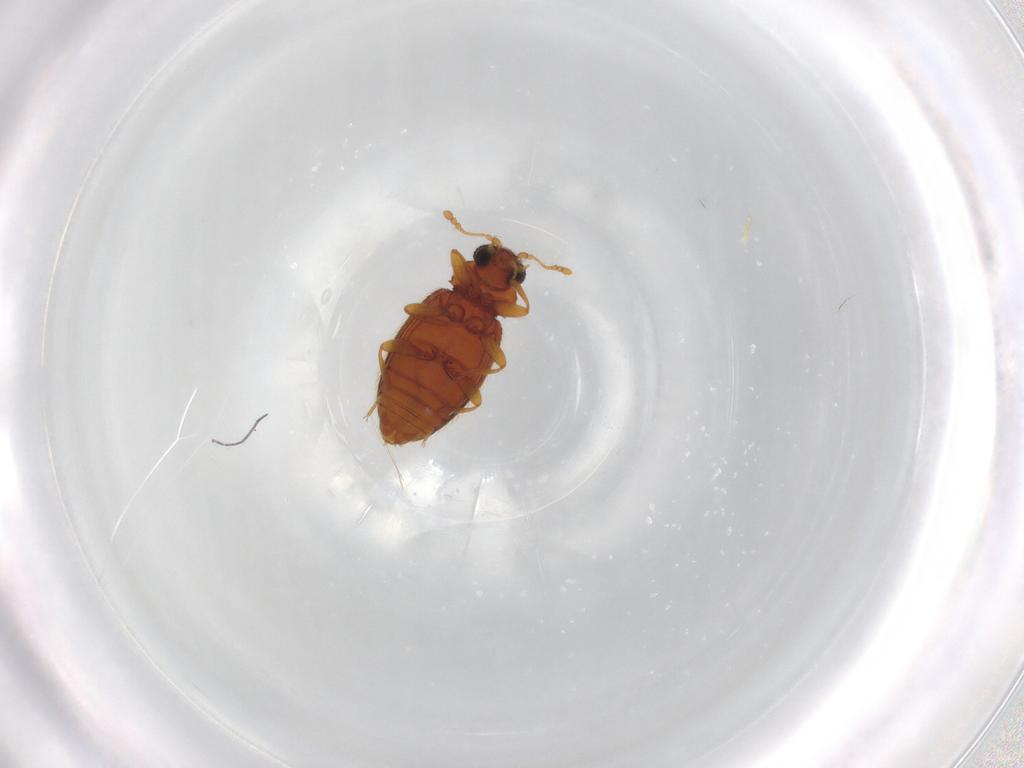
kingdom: Animalia
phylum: Arthropoda
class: Insecta
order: Coleoptera
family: Latridiidae
